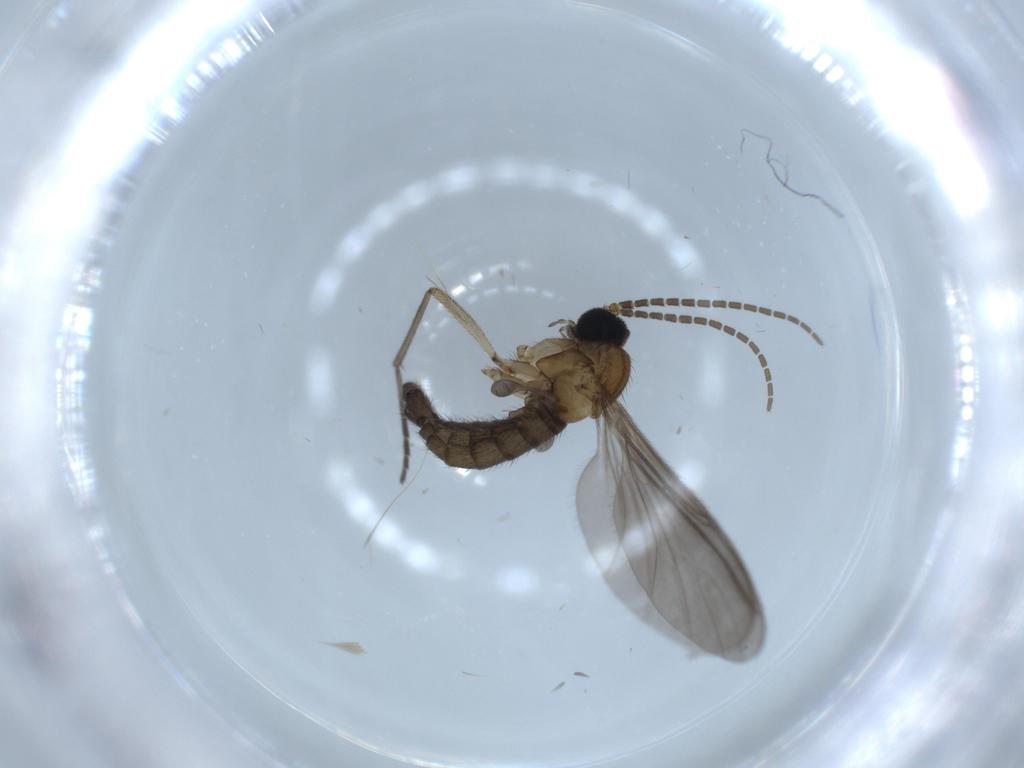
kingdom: Animalia
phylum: Arthropoda
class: Insecta
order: Diptera
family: Sciaridae
